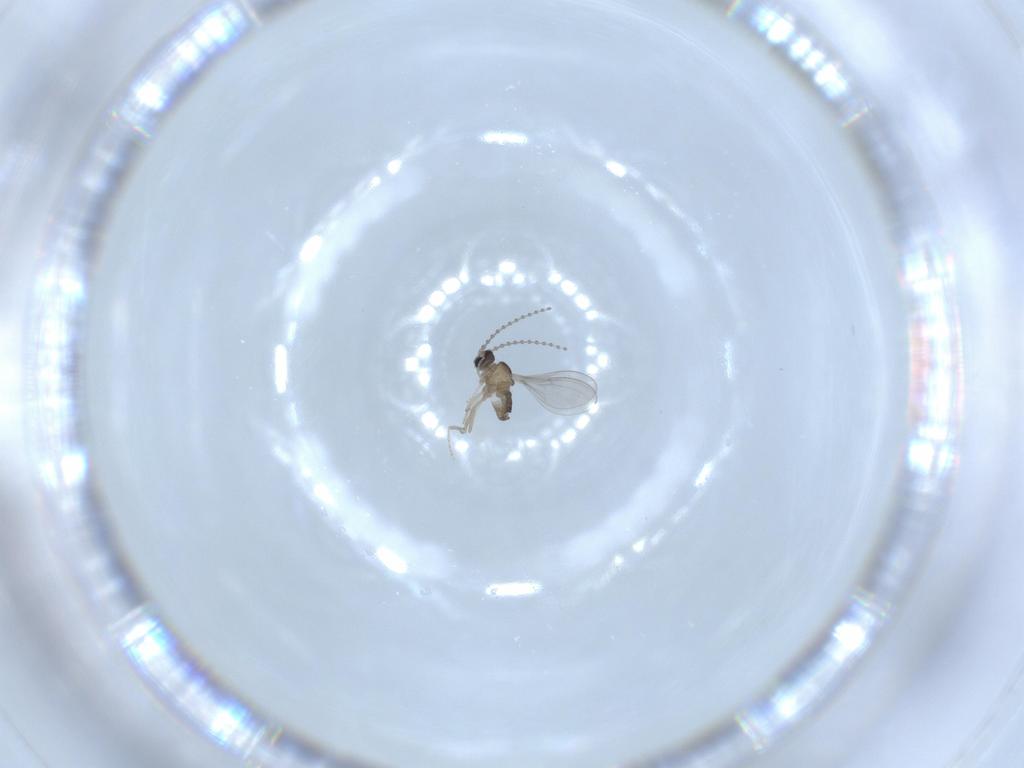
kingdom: Animalia
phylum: Arthropoda
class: Insecta
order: Diptera
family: Cecidomyiidae
